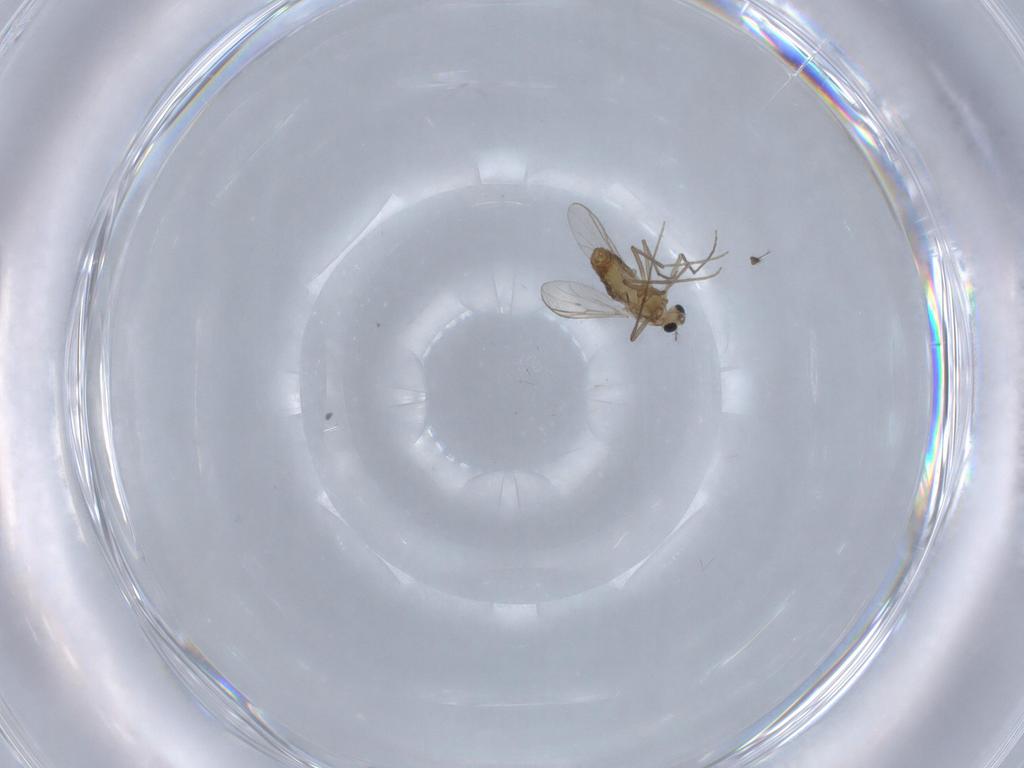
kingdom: Animalia
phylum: Arthropoda
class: Insecta
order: Diptera
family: Chironomidae
